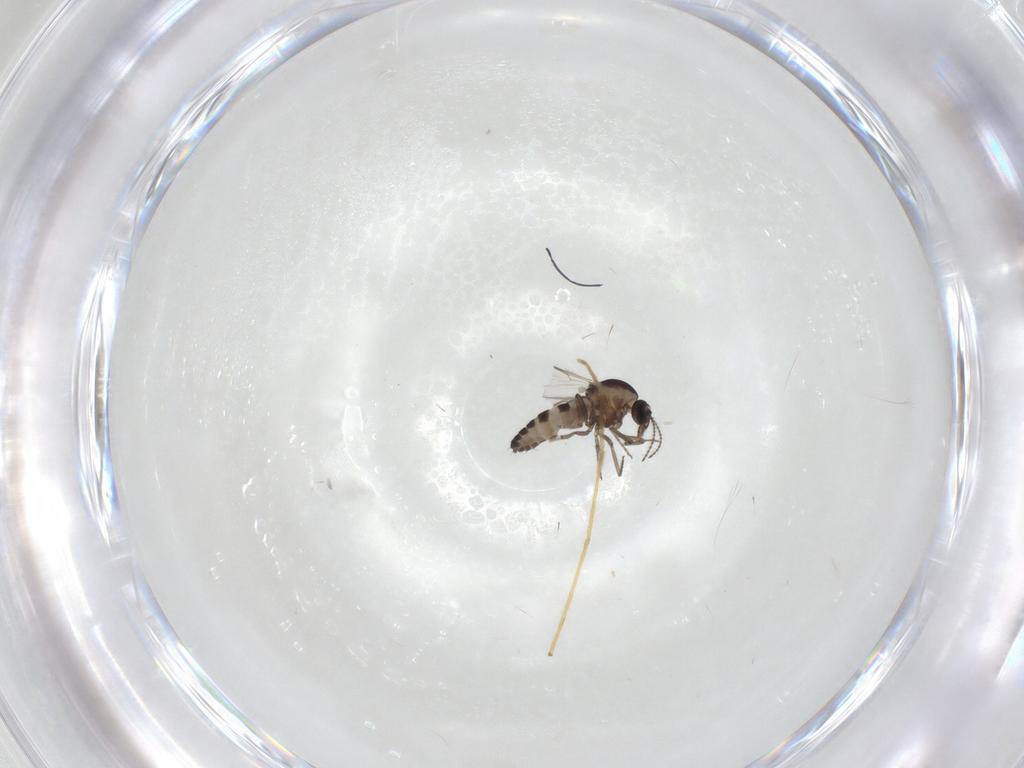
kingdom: Animalia
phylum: Arthropoda
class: Insecta
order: Diptera
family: Chironomidae
